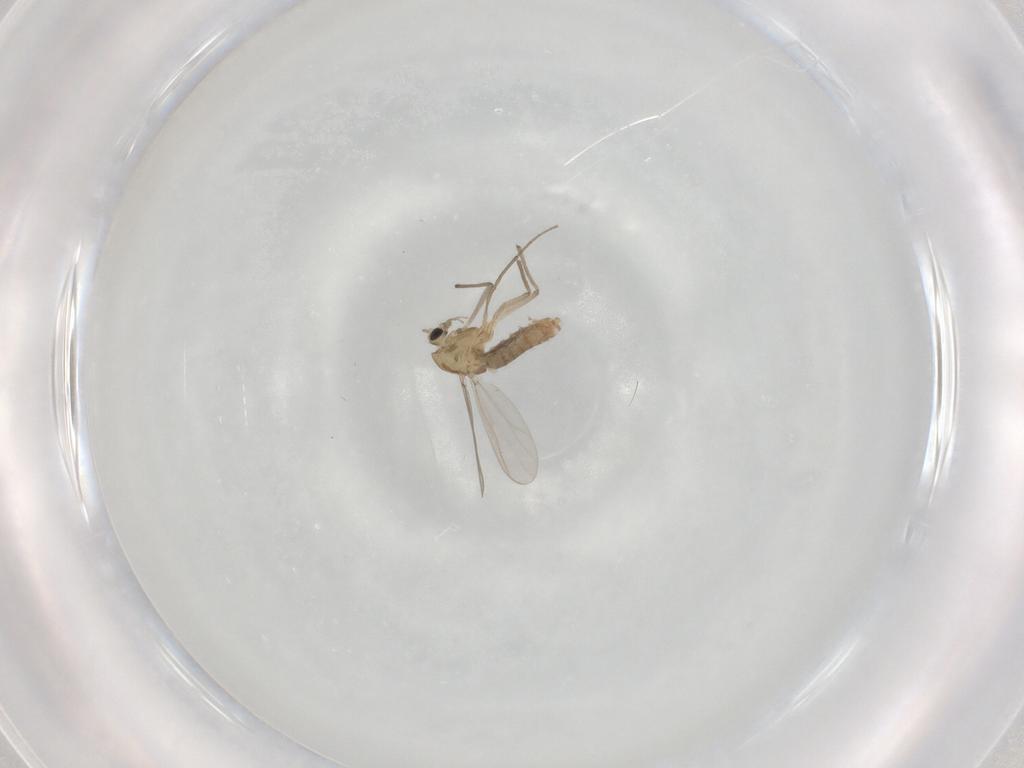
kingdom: Animalia
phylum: Arthropoda
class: Insecta
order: Diptera
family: Chironomidae
